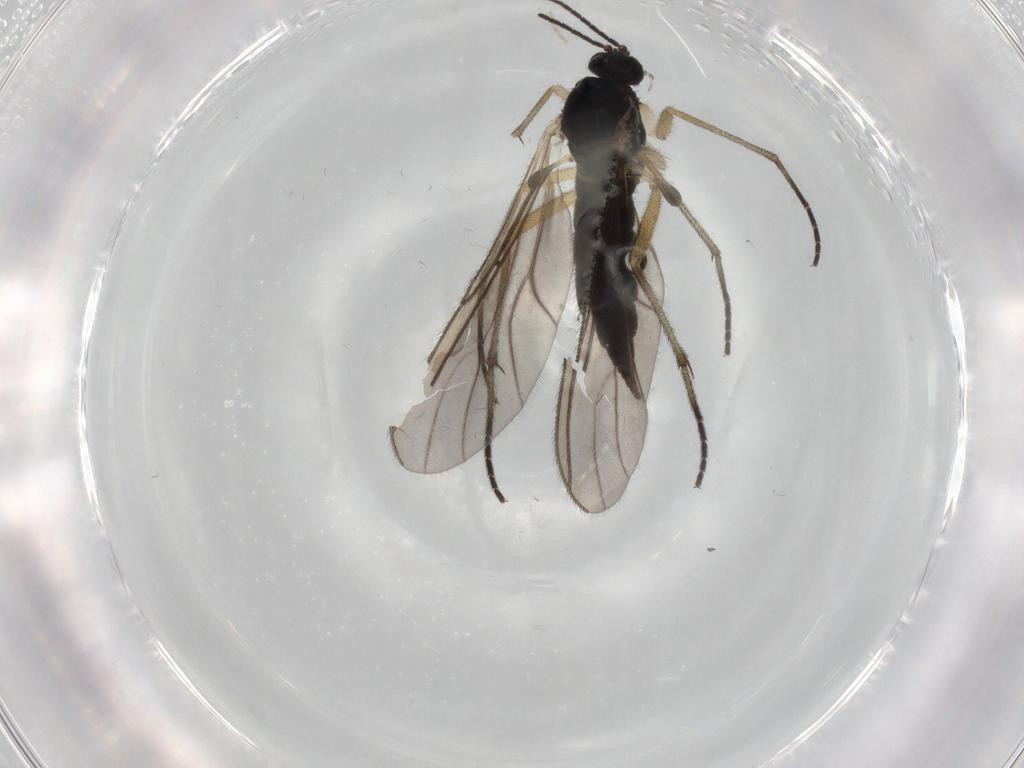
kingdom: Animalia
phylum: Arthropoda
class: Insecta
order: Diptera
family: Sciaridae
